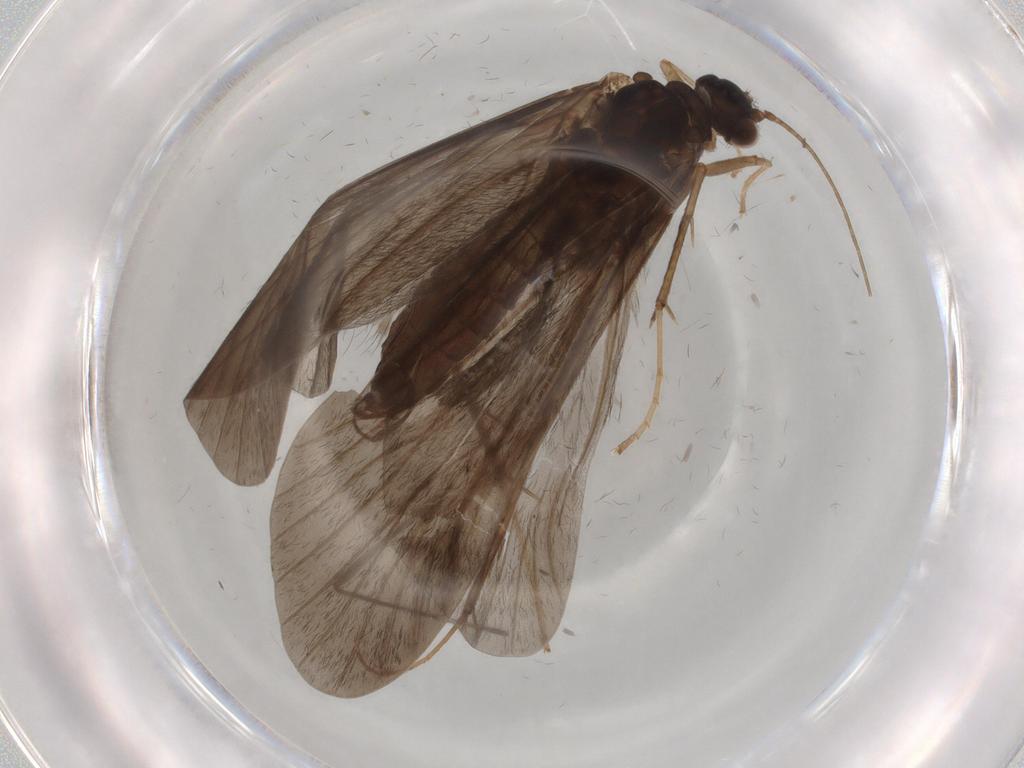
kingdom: Animalia
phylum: Arthropoda
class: Insecta
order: Trichoptera
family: Hydropsychidae
